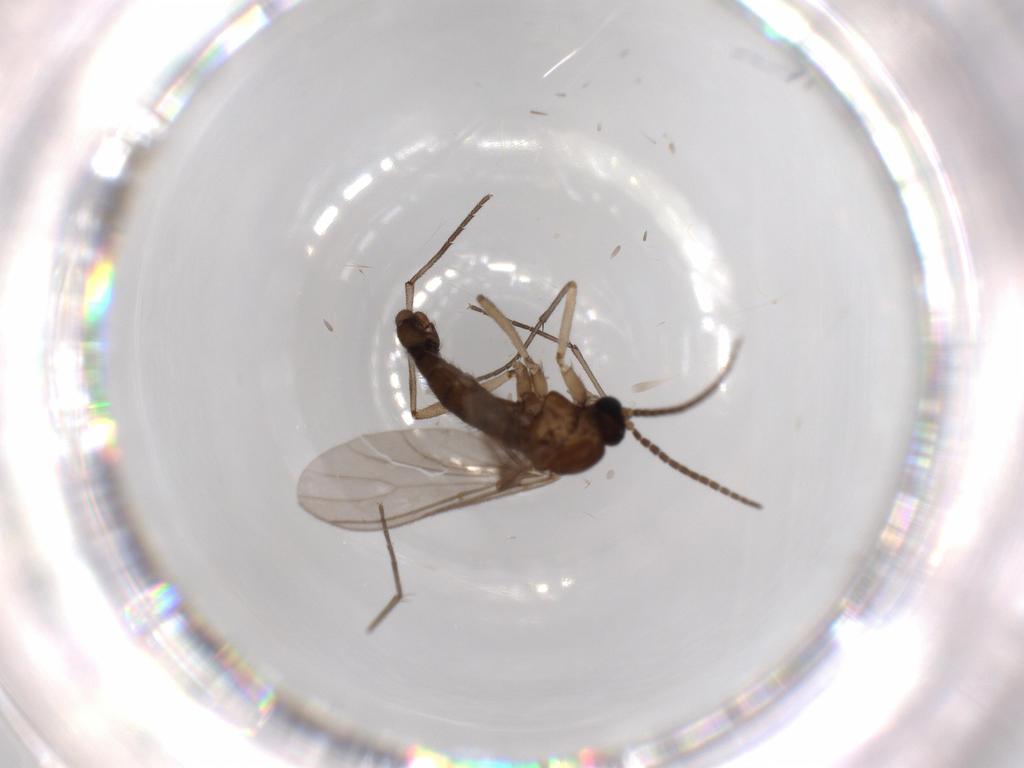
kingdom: Animalia
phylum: Arthropoda
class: Insecta
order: Diptera
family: Sciaridae
